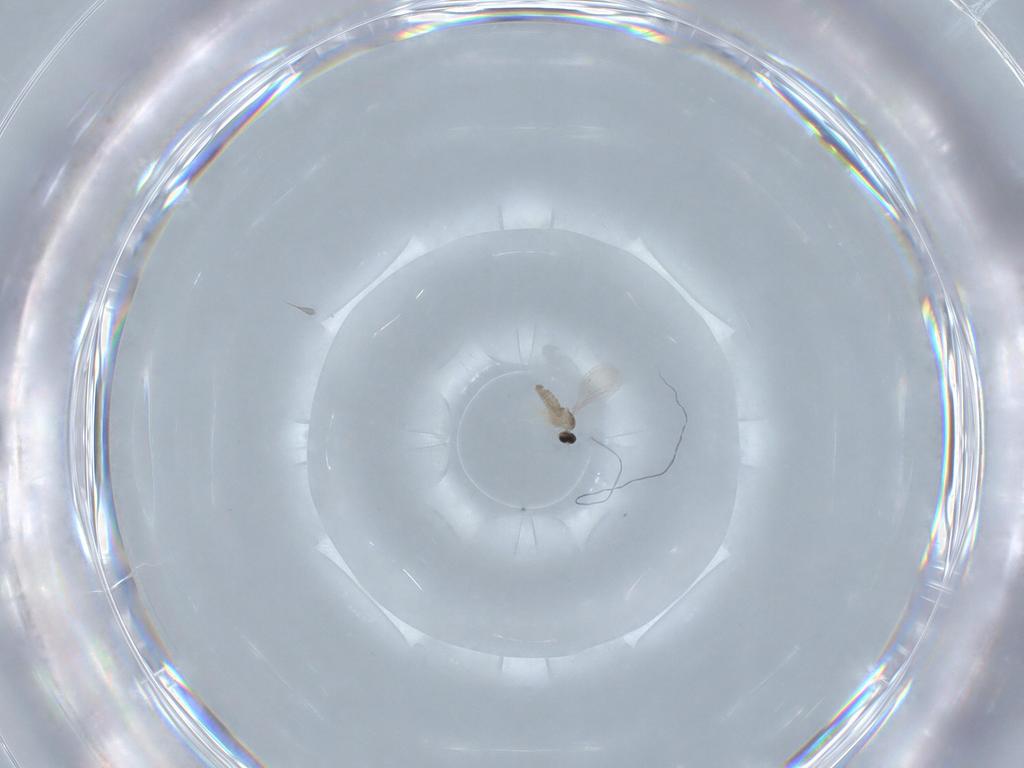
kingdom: Animalia
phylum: Arthropoda
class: Insecta
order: Diptera
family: Cecidomyiidae
